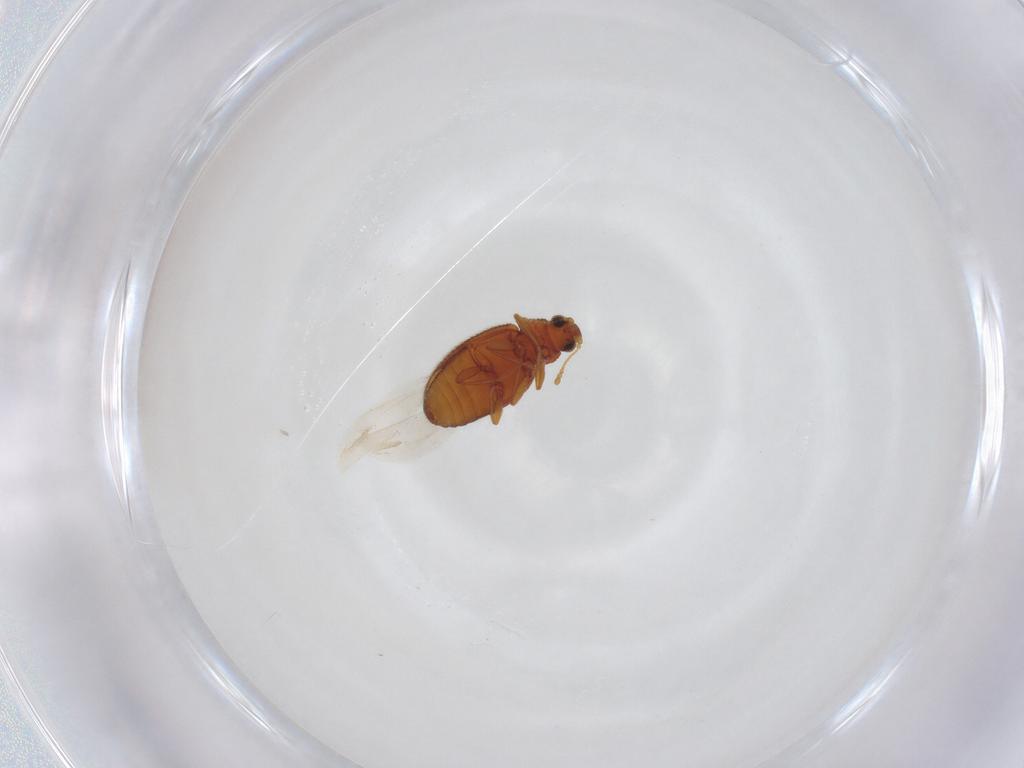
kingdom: Animalia
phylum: Arthropoda
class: Insecta
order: Coleoptera
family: Latridiidae
